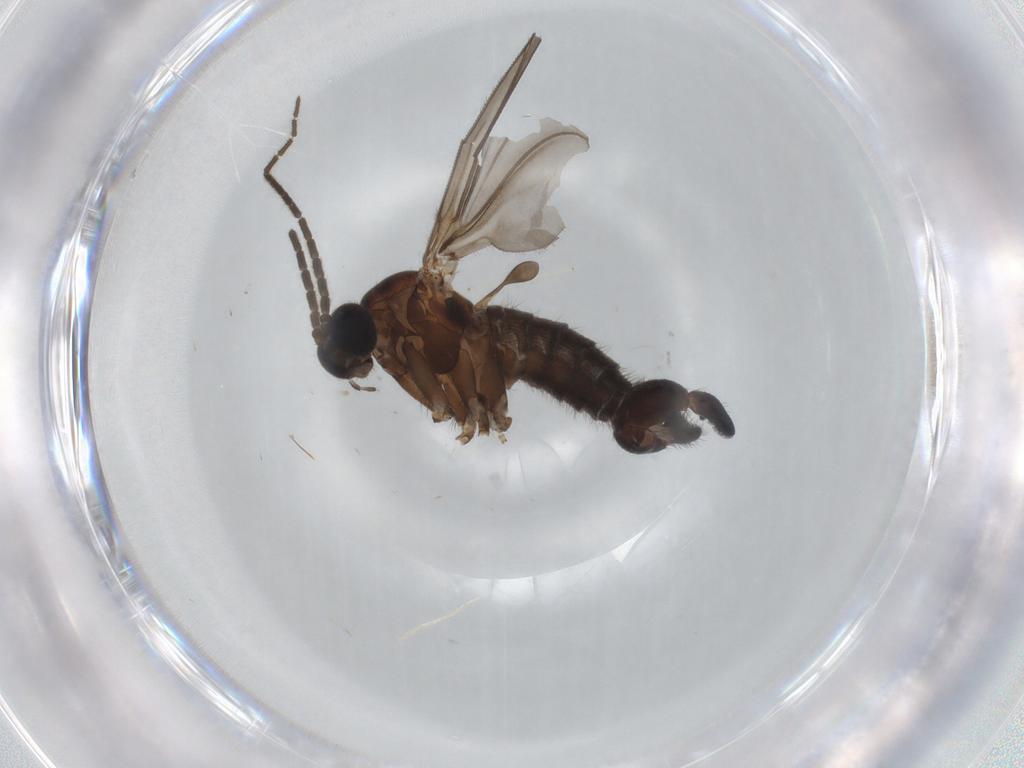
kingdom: Animalia
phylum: Arthropoda
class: Insecta
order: Diptera
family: Sciaridae
